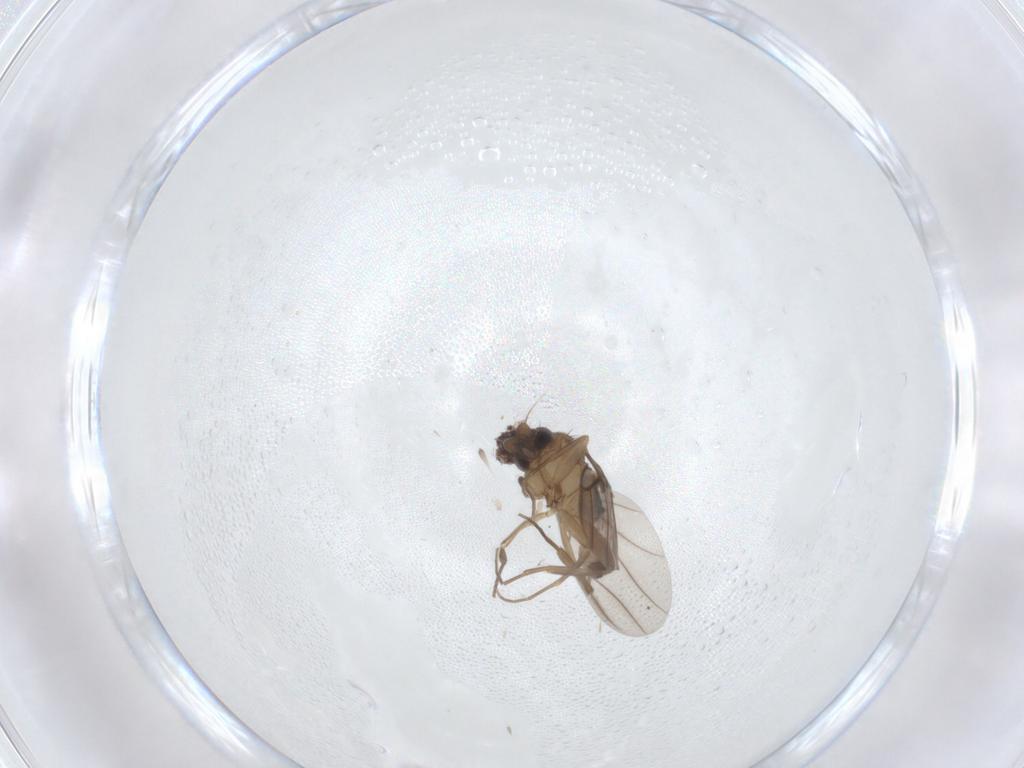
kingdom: Animalia
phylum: Arthropoda
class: Insecta
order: Diptera
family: Phoridae
